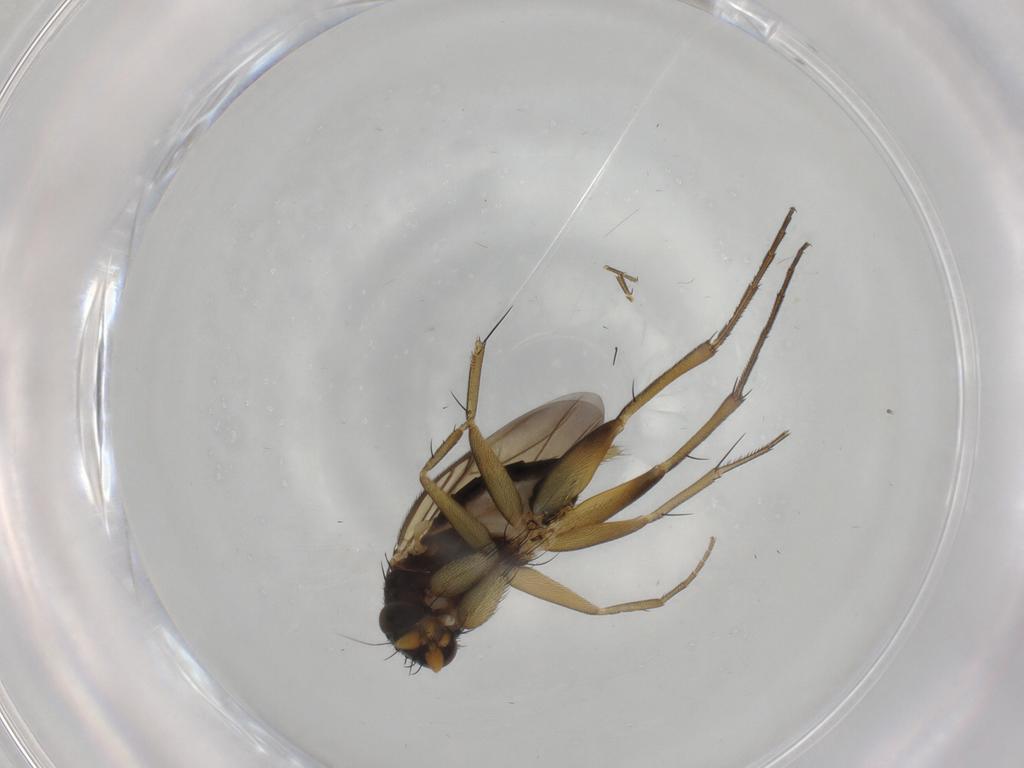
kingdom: Animalia
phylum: Arthropoda
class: Insecta
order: Diptera
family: Phoridae
